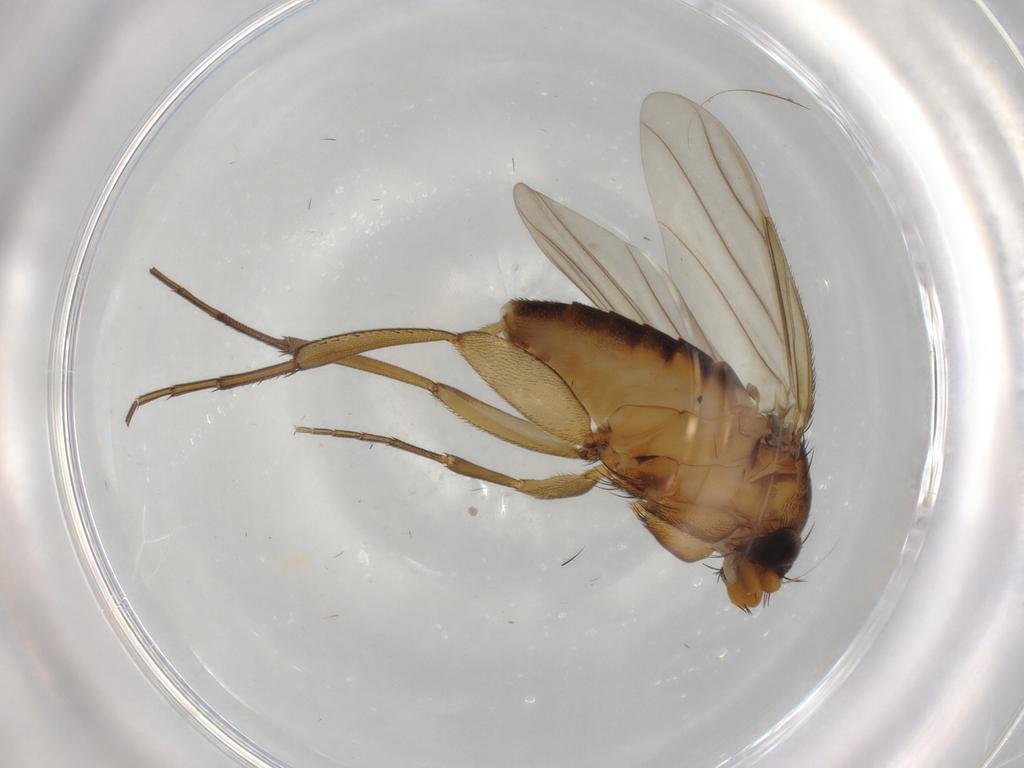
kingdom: Animalia
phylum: Arthropoda
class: Insecta
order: Diptera
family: Phoridae
